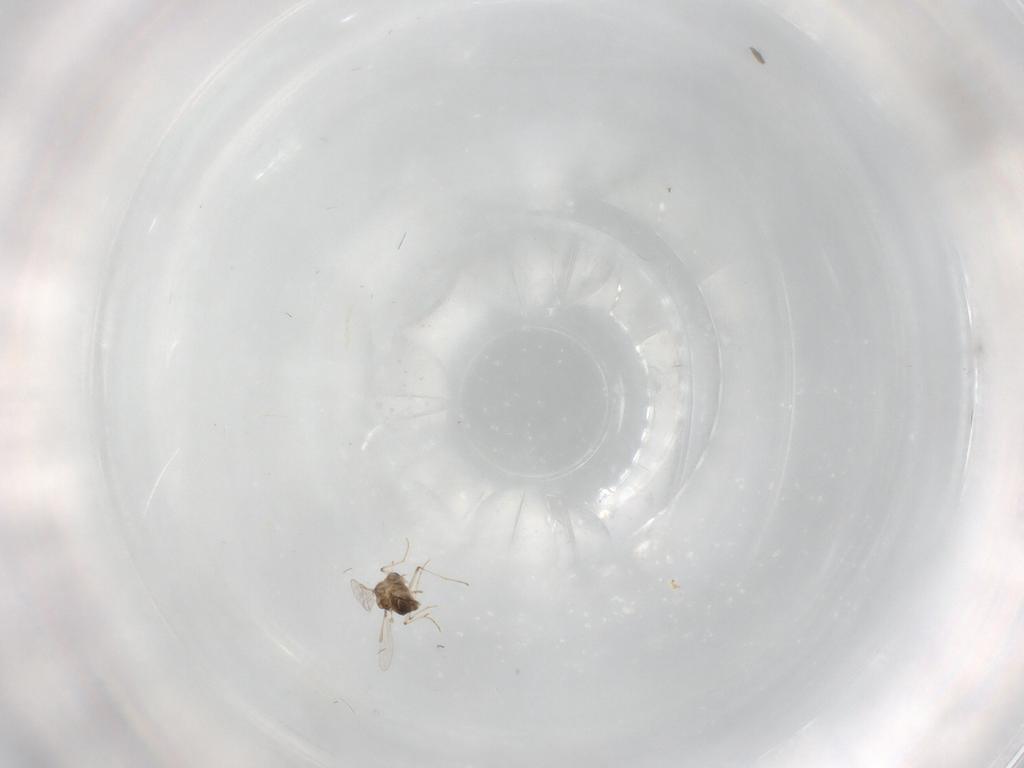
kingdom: Animalia
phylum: Arthropoda
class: Insecta
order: Diptera
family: Chironomidae
